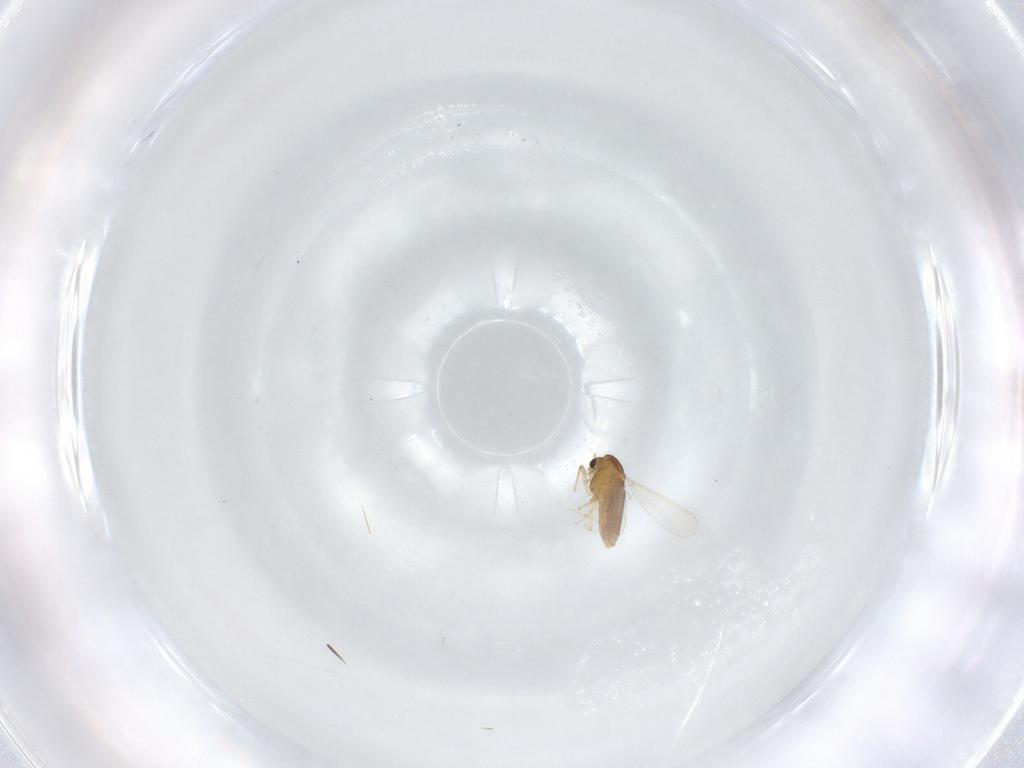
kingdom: Animalia
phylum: Arthropoda
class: Insecta
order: Diptera
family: Chironomidae
